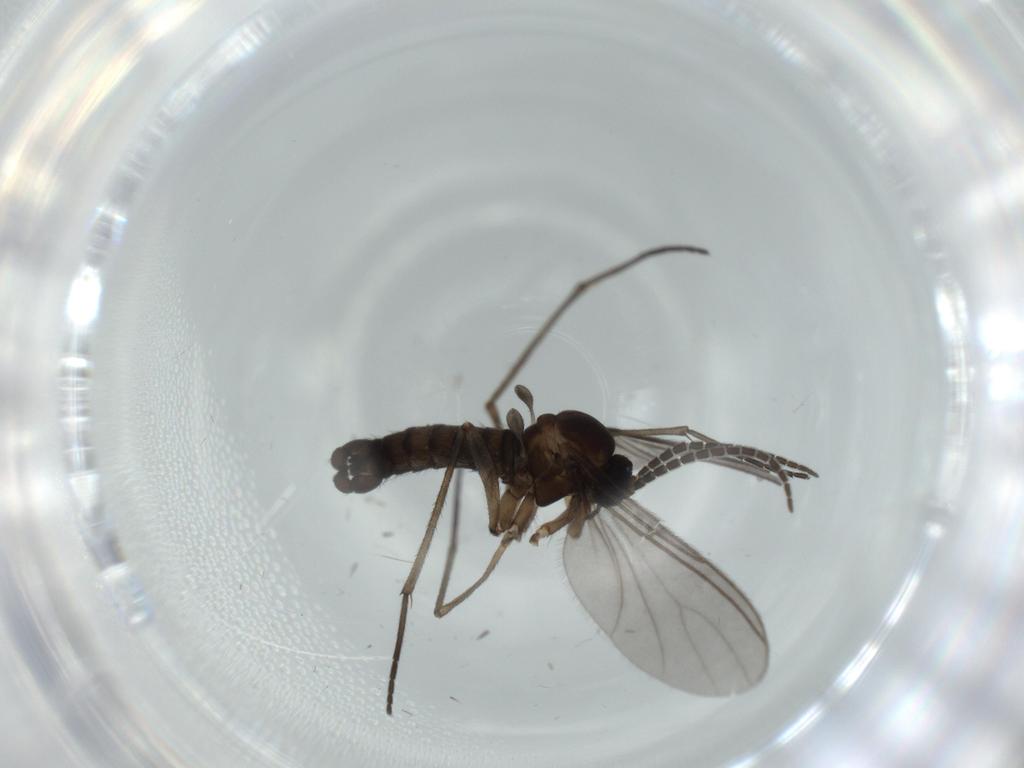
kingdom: Animalia
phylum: Arthropoda
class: Insecta
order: Diptera
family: Sciaridae
